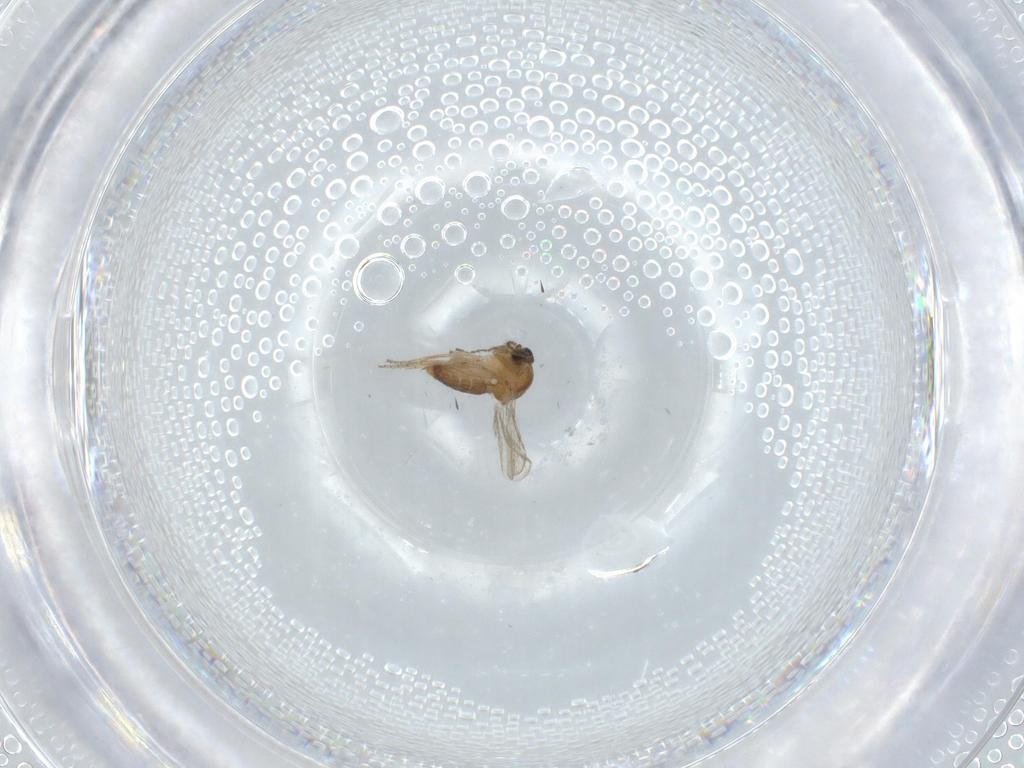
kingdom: Animalia
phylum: Arthropoda
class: Insecta
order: Diptera
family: Ceratopogonidae
